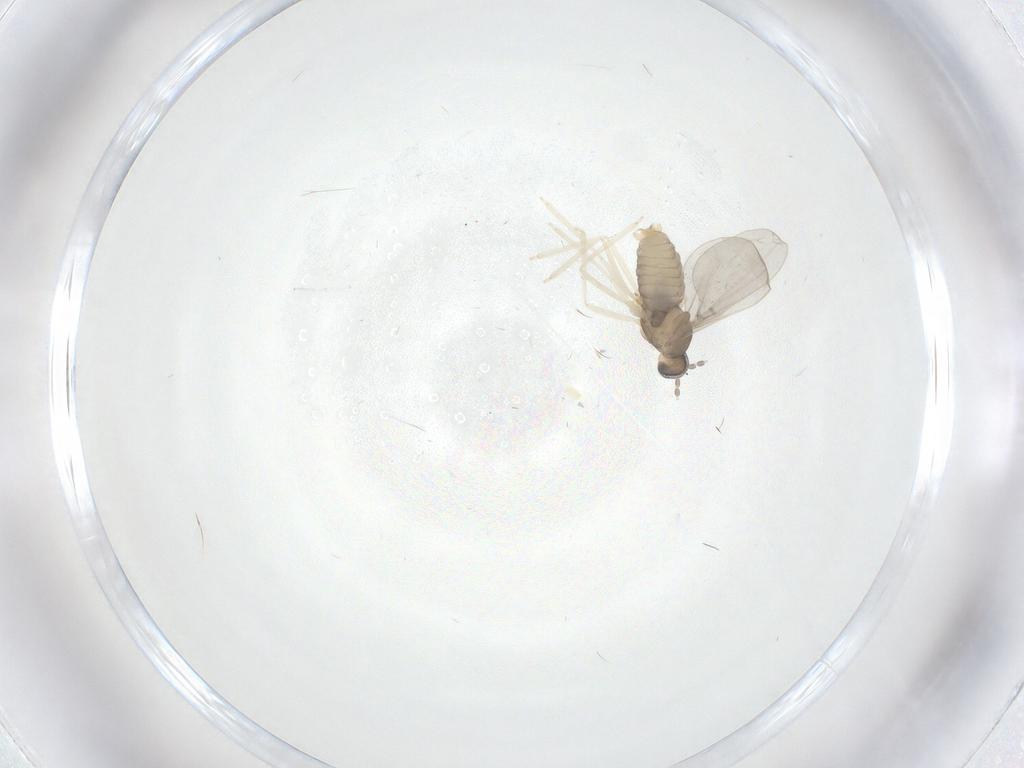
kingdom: Animalia
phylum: Arthropoda
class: Insecta
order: Diptera
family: Mycetophilidae
